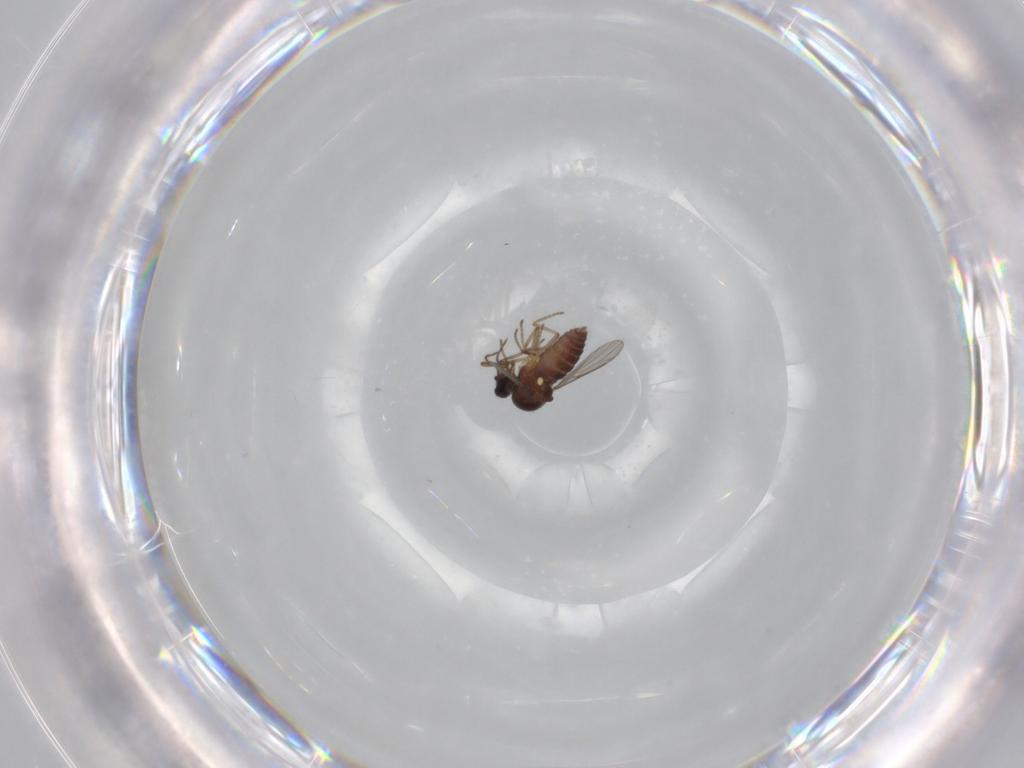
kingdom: Animalia
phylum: Arthropoda
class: Insecta
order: Diptera
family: Ceratopogonidae
